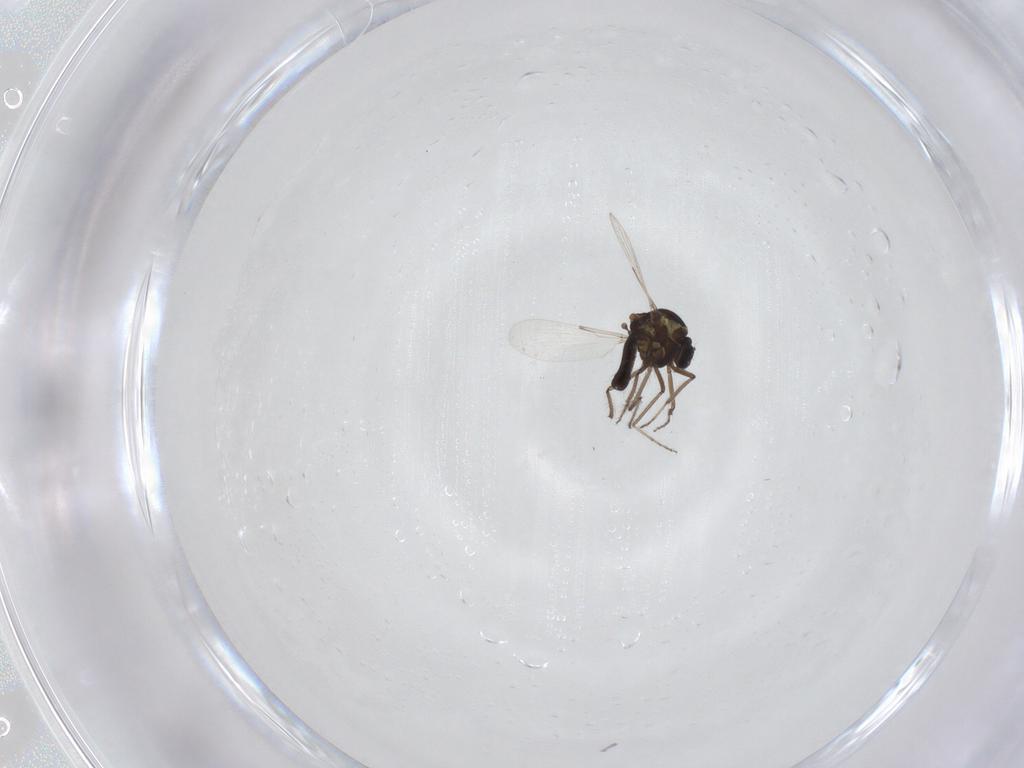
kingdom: Animalia
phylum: Arthropoda
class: Insecta
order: Diptera
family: Ceratopogonidae
